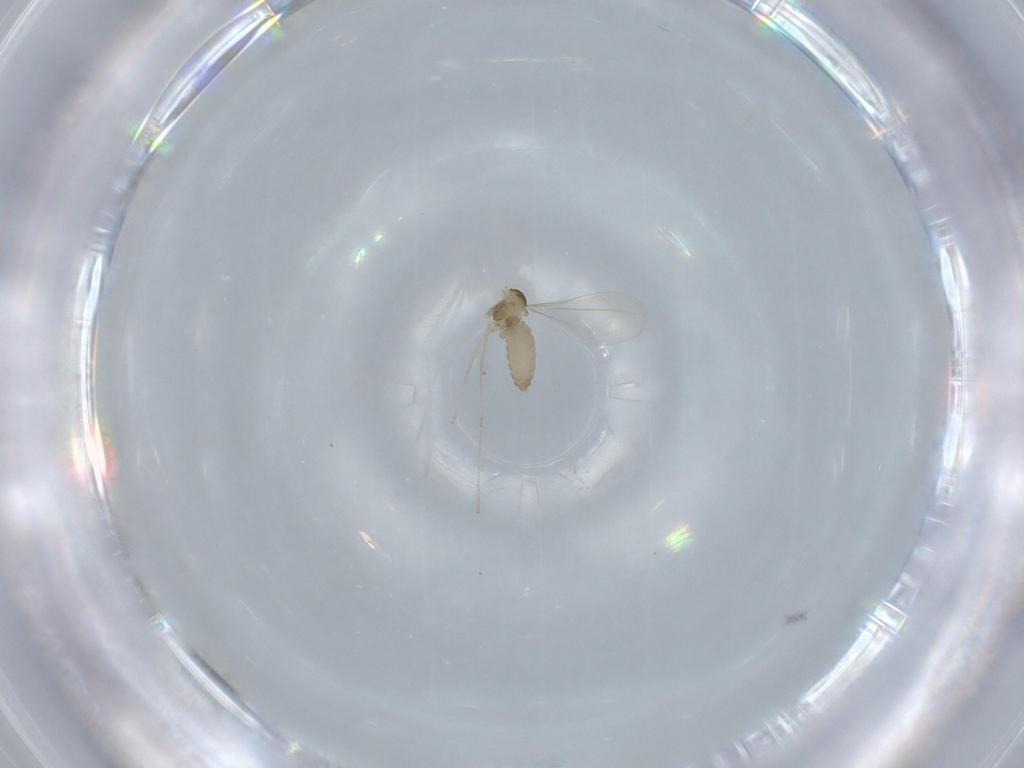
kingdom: Animalia
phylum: Arthropoda
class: Insecta
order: Diptera
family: Cecidomyiidae
